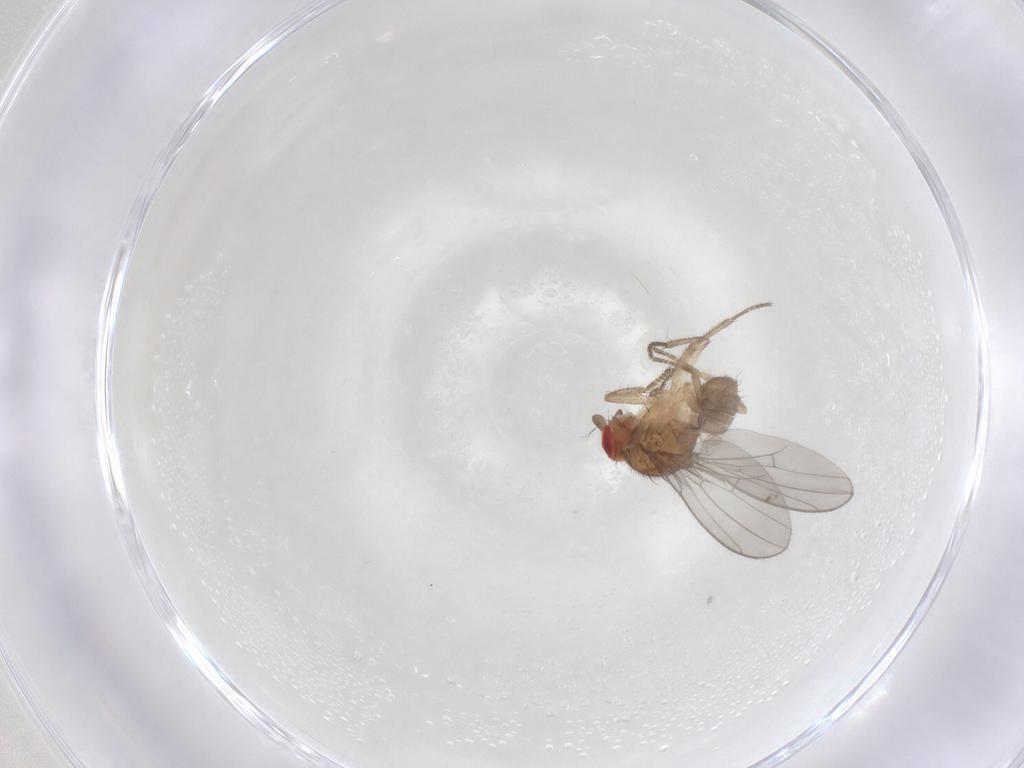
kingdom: Animalia
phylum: Arthropoda
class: Insecta
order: Diptera
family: Drosophilidae
